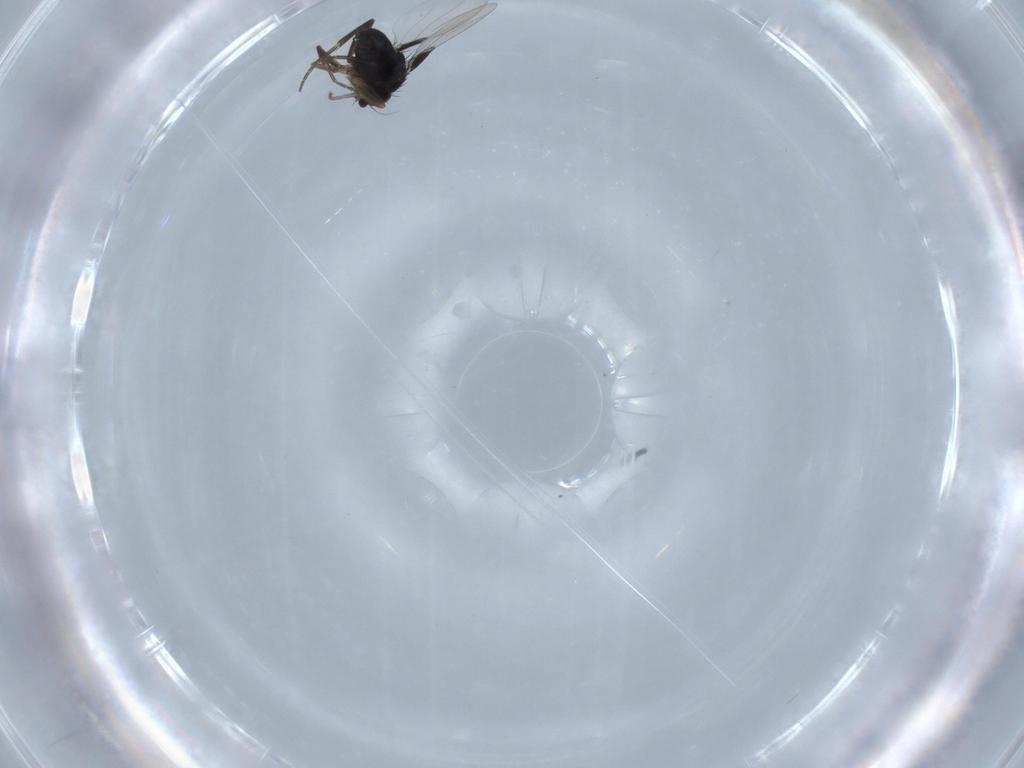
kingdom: Animalia
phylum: Arthropoda
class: Insecta
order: Diptera
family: Phoridae
